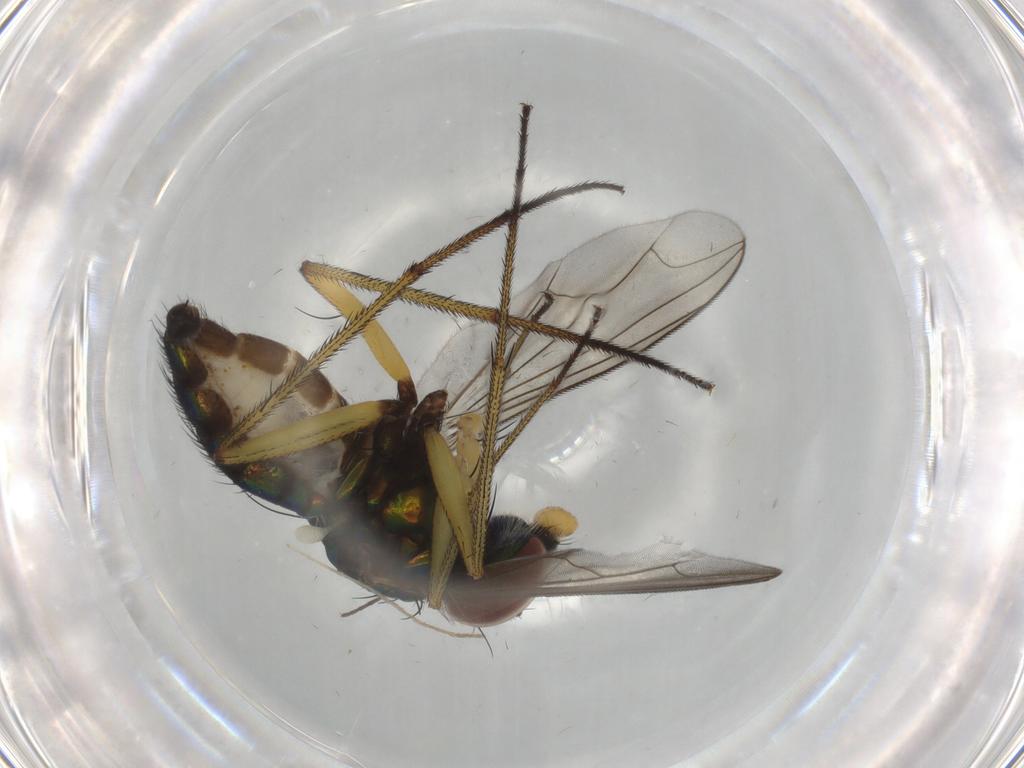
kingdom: Animalia
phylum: Arthropoda
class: Insecta
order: Diptera
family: Dolichopodidae
